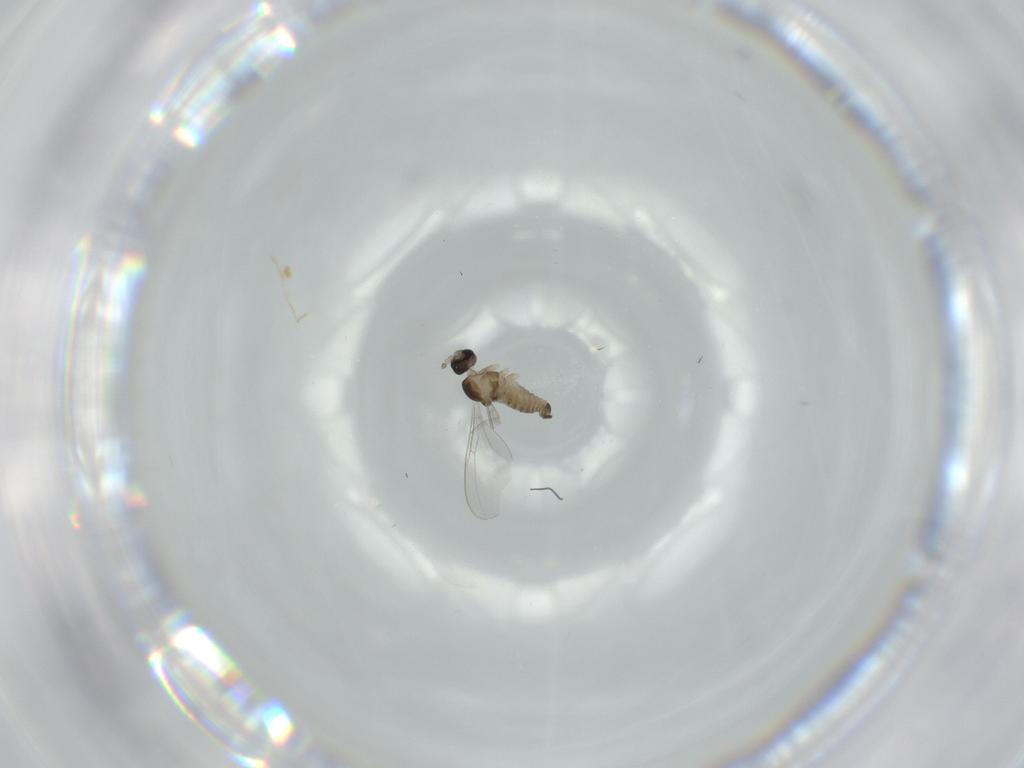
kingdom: Animalia
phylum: Arthropoda
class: Insecta
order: Diptera
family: Cecidomyiidae
